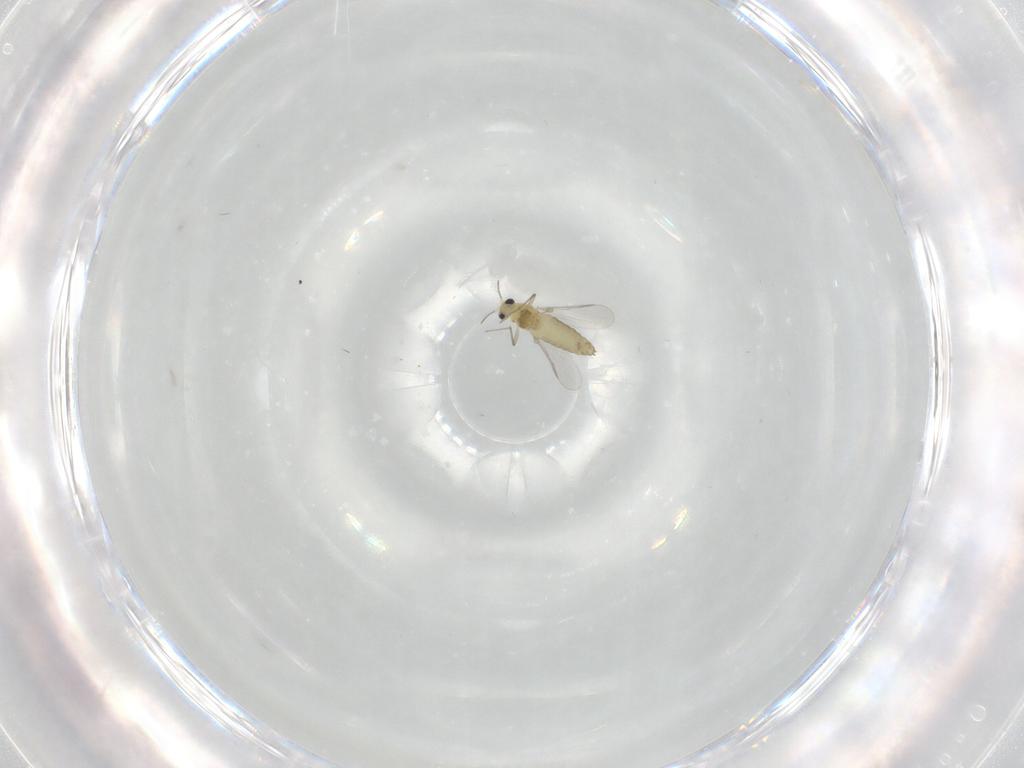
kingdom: Animalia
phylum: Arthropoda
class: Insecta
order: Diptera
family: Chironomidae
